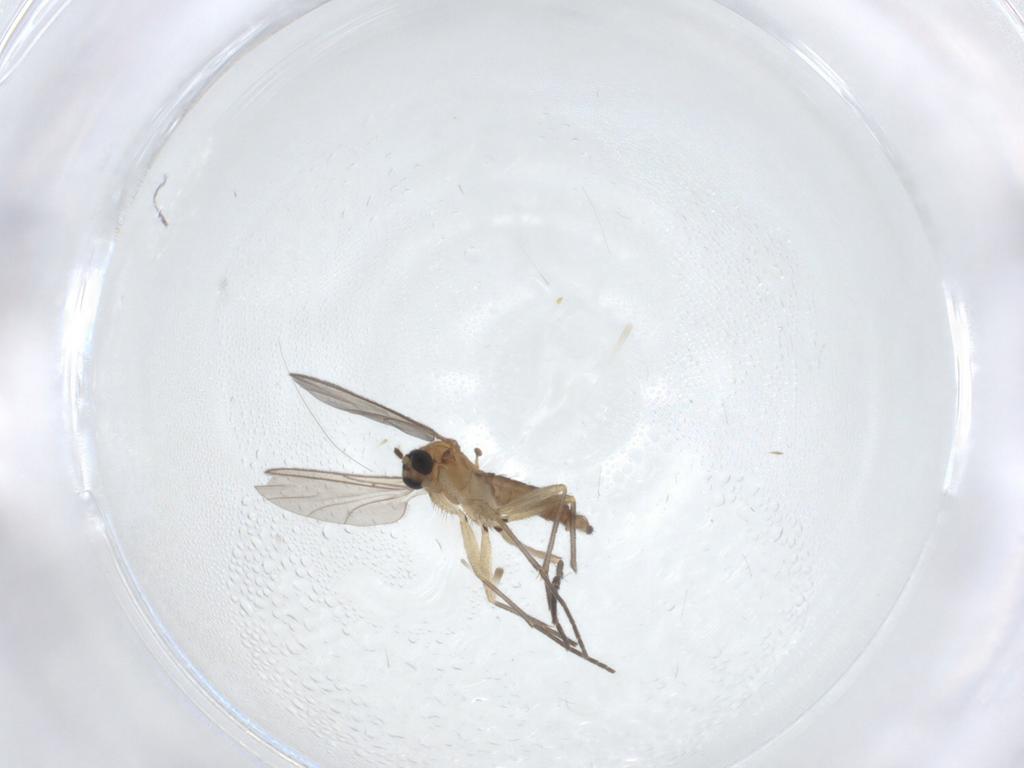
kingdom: Animalia
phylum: Arthropoda
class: Insecta
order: Diptera
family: Sciaridae
